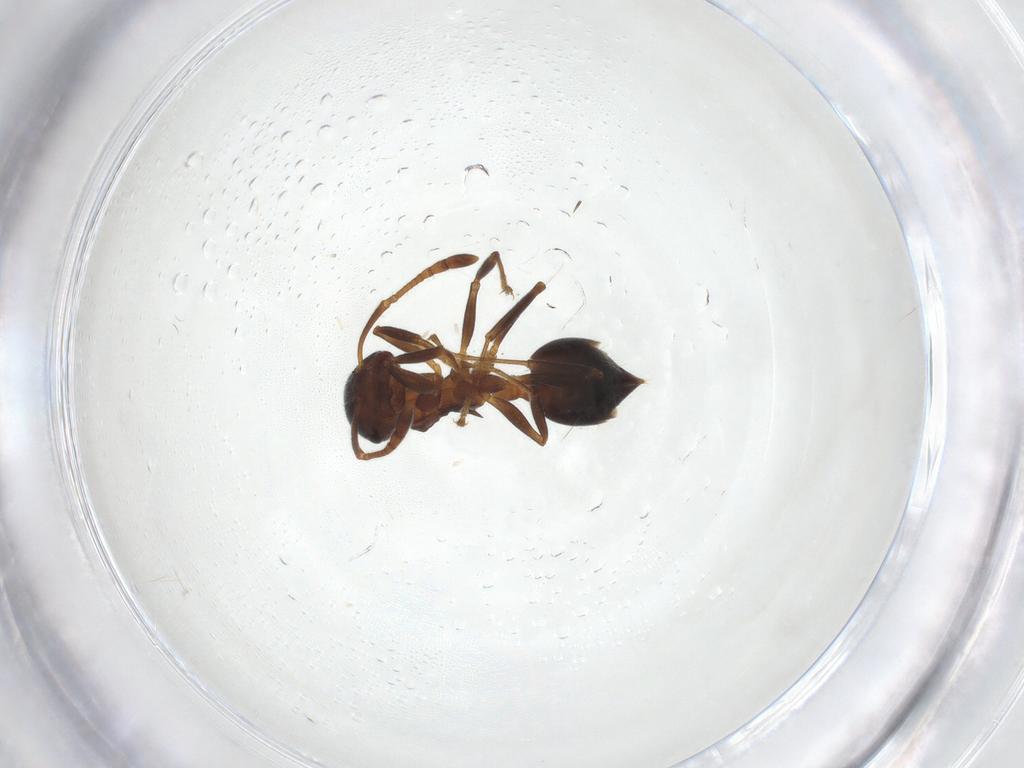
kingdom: Animalia
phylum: Arthropoda
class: Insecta
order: Hymenoptera
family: Formicidae
